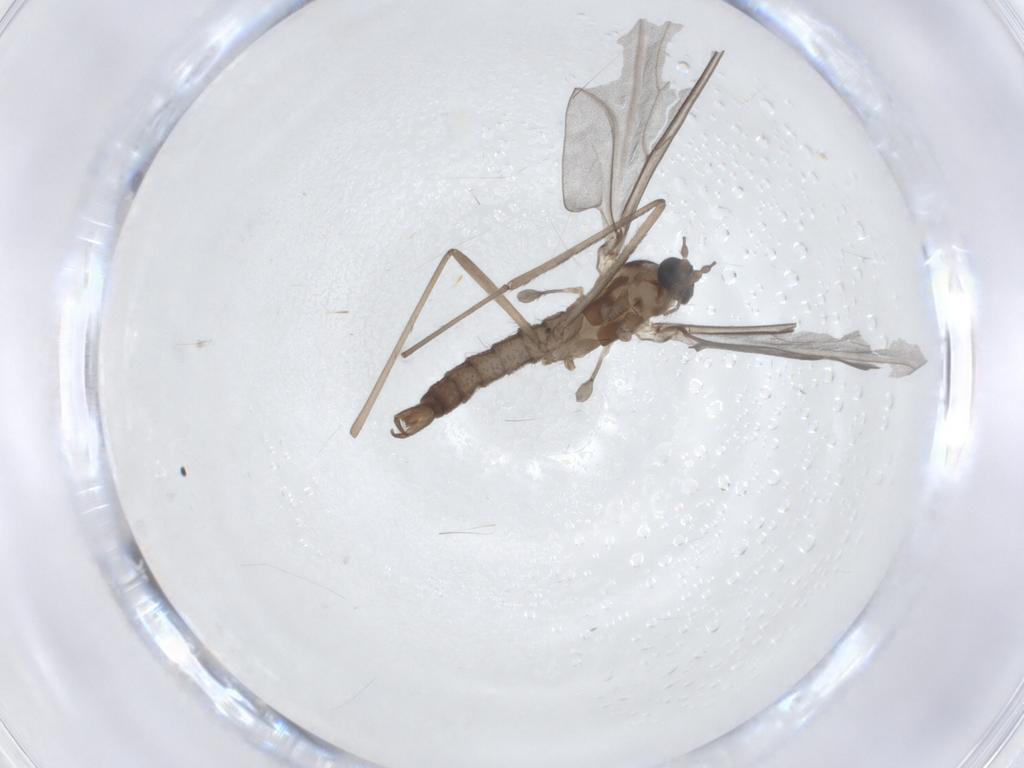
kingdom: Animalia
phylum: Arthropoda
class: Insecta
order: Diptera
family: Cecidomyiidae
